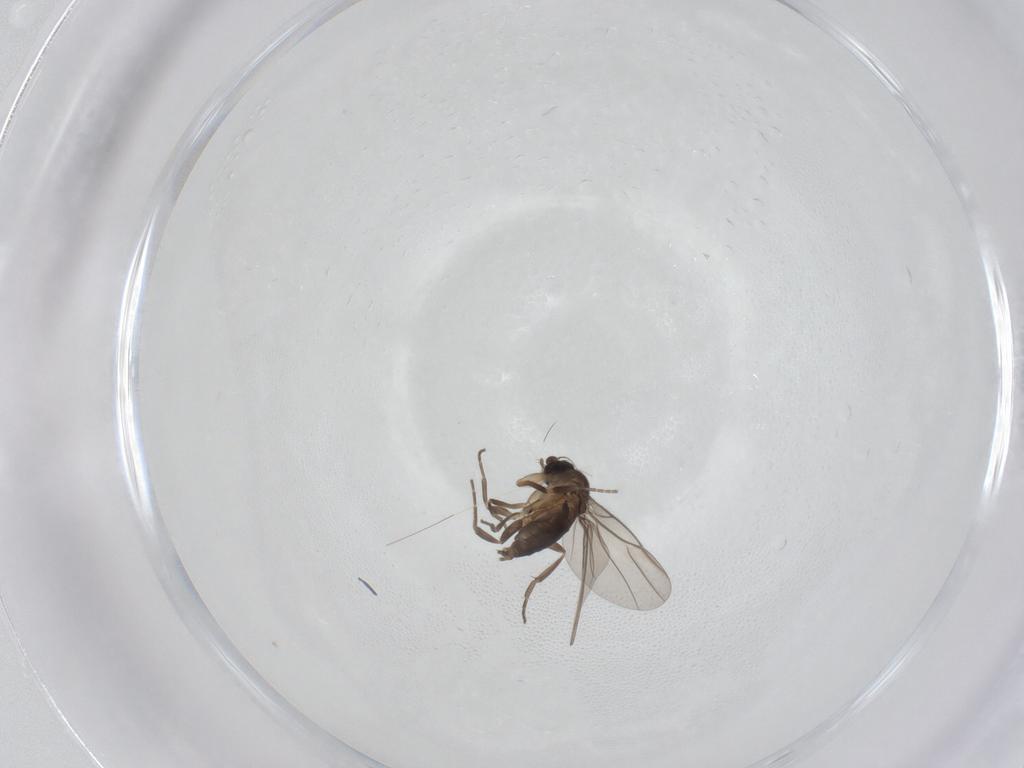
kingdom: Animalia
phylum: Arthropoda
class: Insecta
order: Diptera
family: Phoridae
